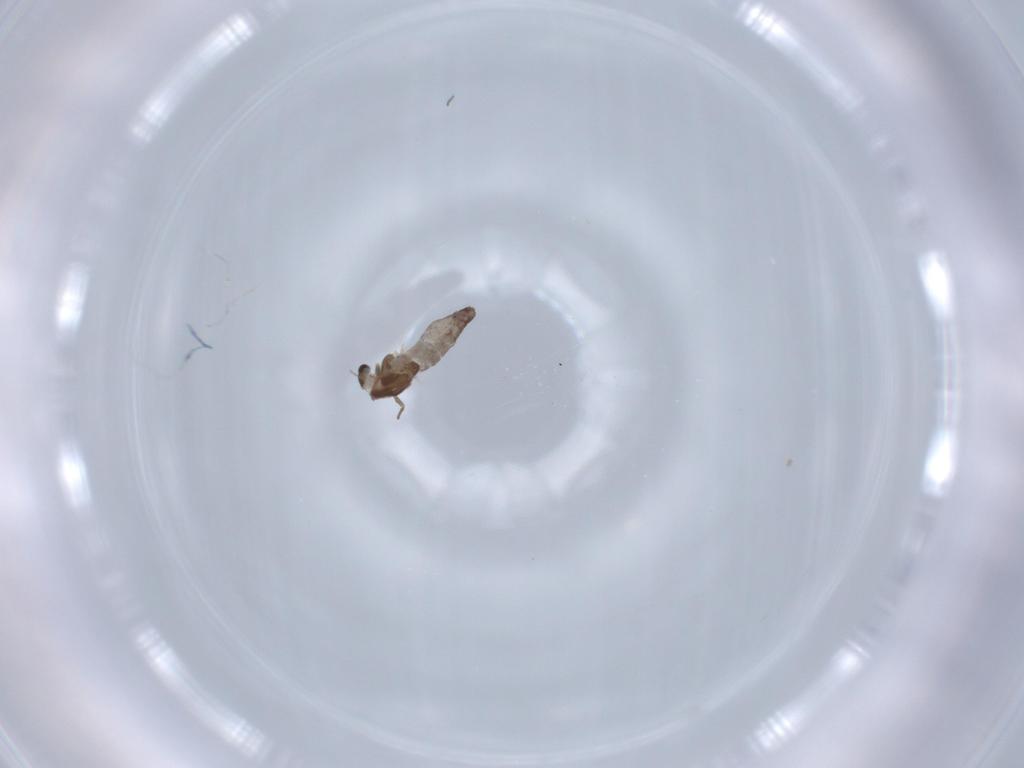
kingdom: Animalia
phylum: Arthropoda
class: Insecta
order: Diptera
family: Chironomidae
